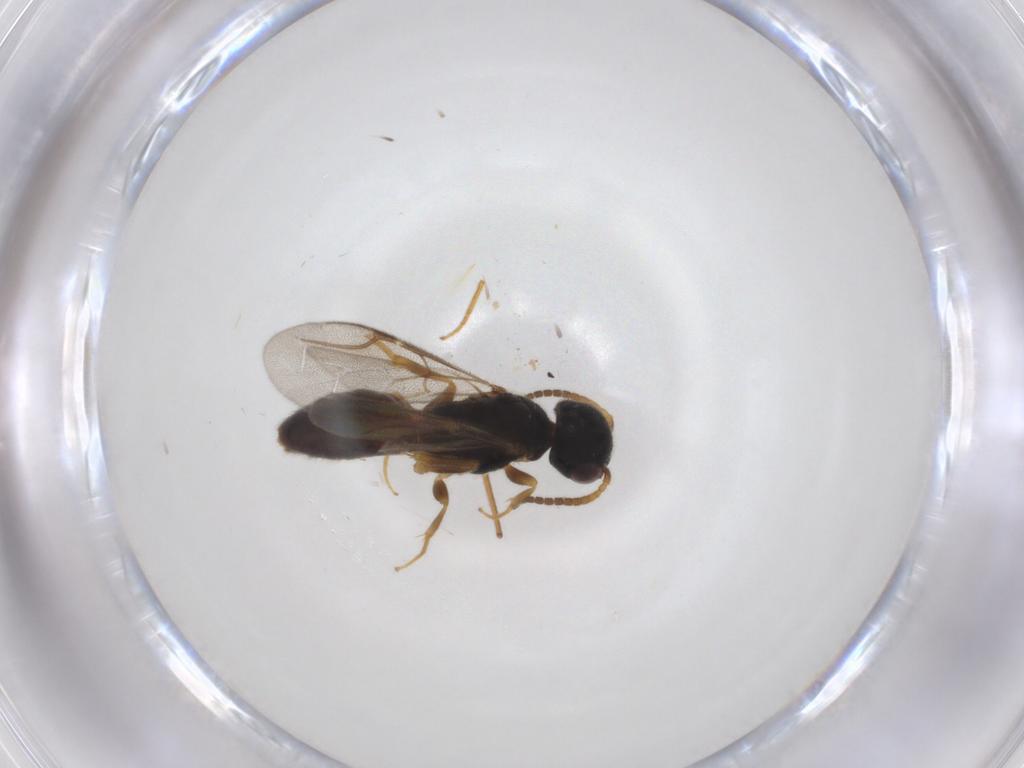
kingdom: Animalia
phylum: Arthropoda
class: Insecta
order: Hymenoptera
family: Bethylidae
